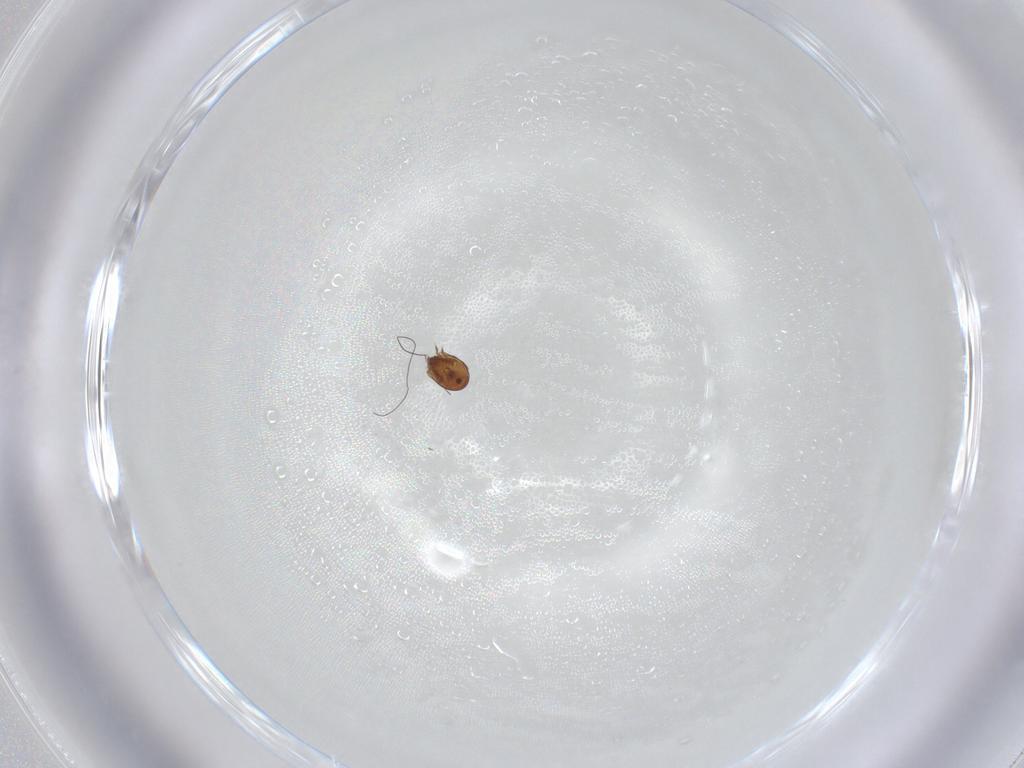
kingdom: Animalia
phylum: Arthropoda
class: Arachnida
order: Sarcoptiformes
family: Scheloribatidae
